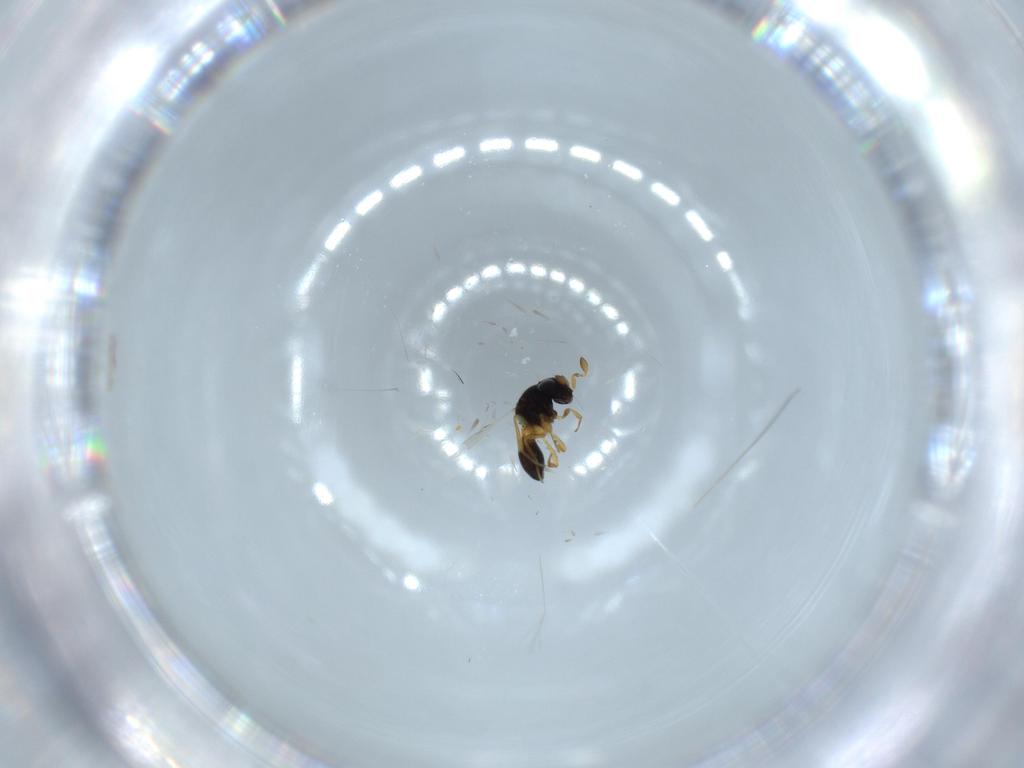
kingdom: Animalia
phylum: Arthropoda
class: Insecta
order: Hymenoptera
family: Scelionidae
